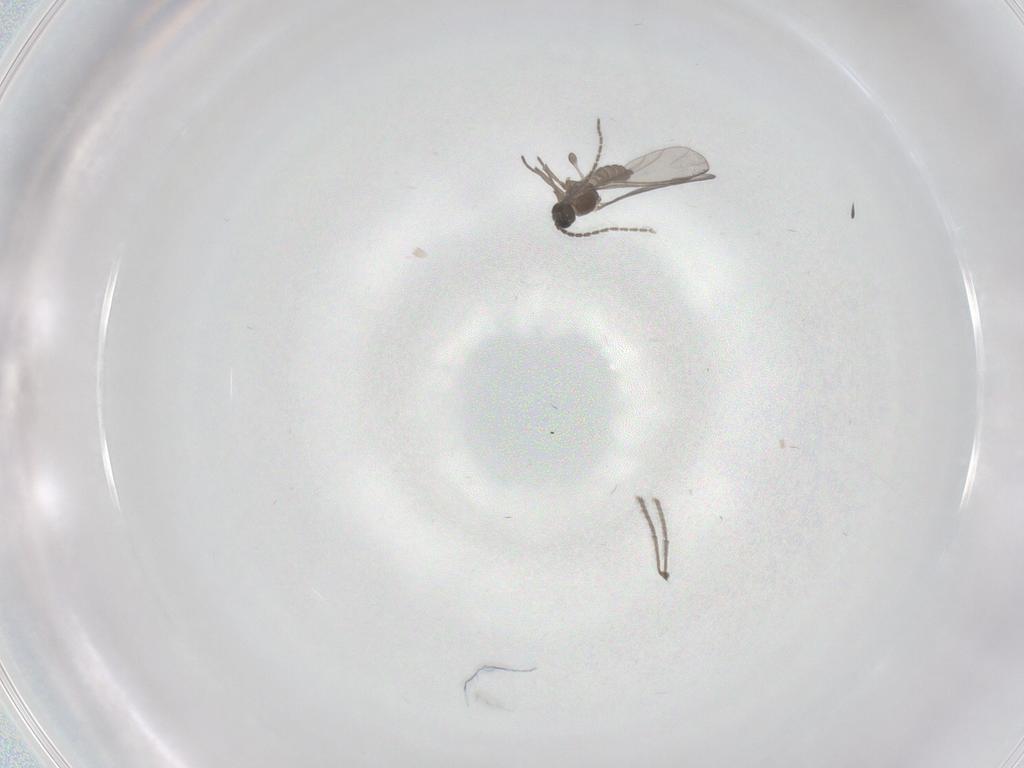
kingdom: Animalia
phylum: Arthropoda
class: Insecta
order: Diptera
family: Sciaridae
